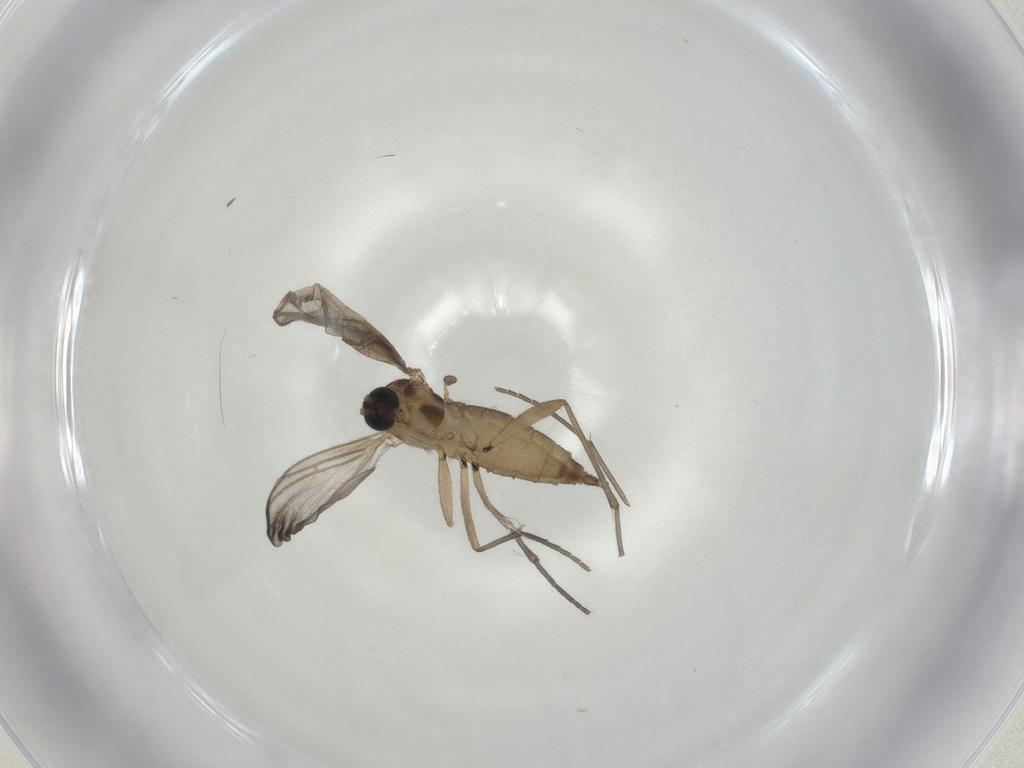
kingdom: Animalia
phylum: Arthropoda
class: Insecta
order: Diptera
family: Sciaridae
